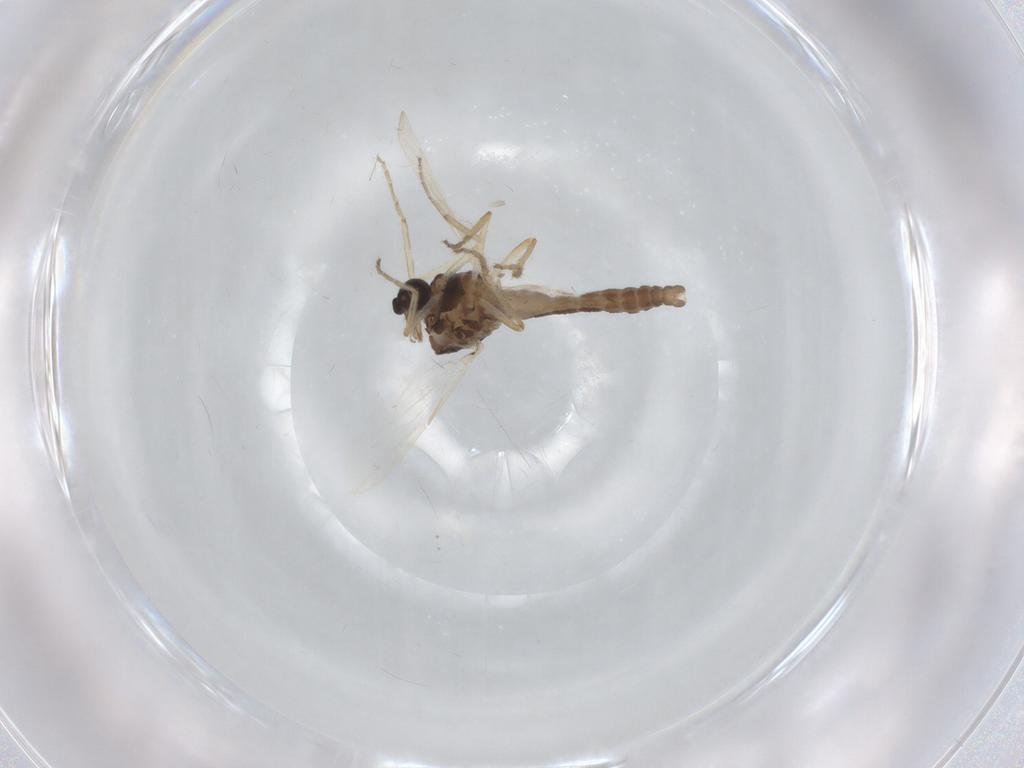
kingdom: Animalia
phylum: Arthropoda
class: Insecta
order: Diptera
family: Ceratopogonidae
